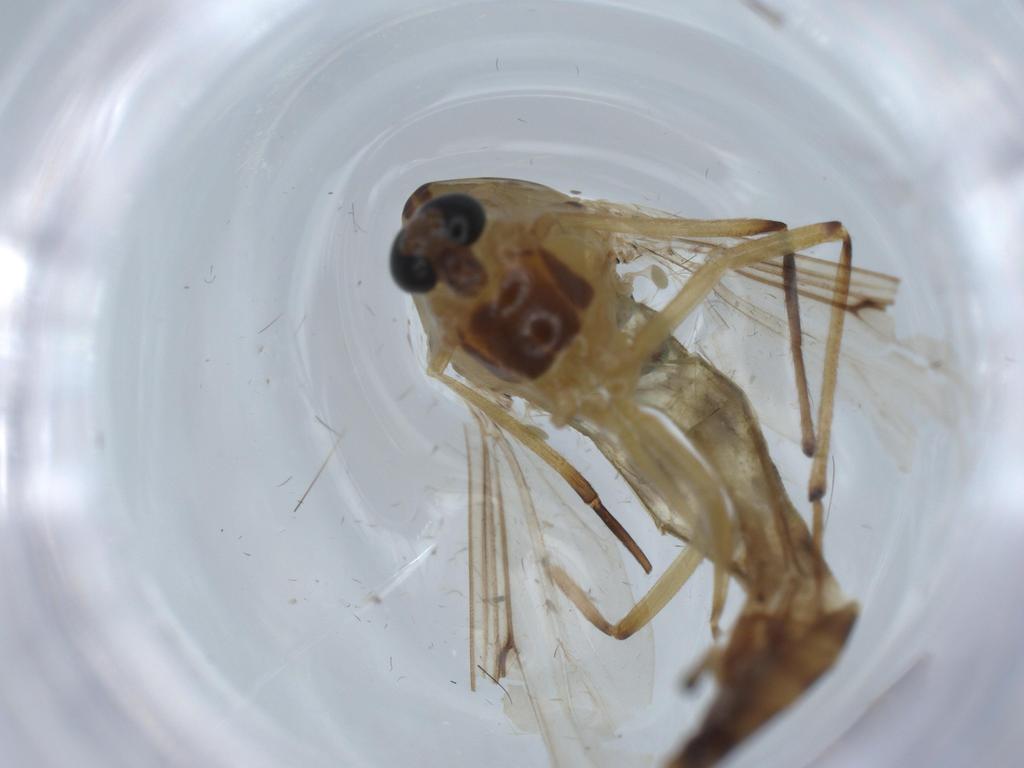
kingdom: Animalia
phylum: Arthropoda
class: Insecta
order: Diptera
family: Chironomidae
